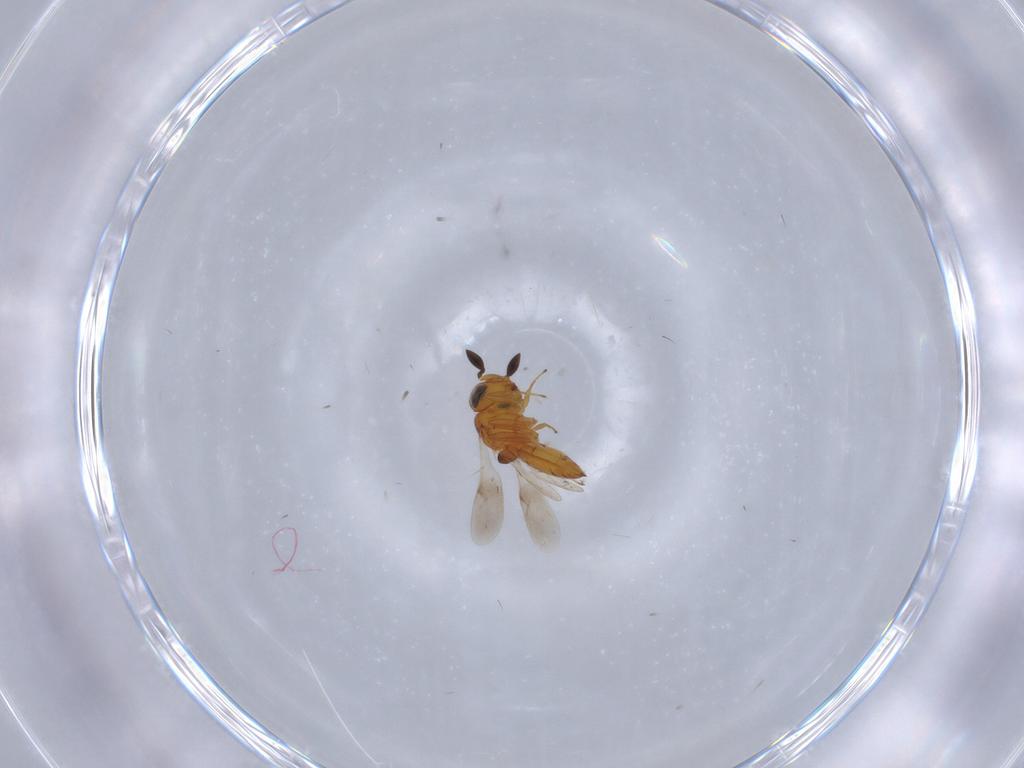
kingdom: Animalia
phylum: Arthropoda
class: Insecta
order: Hymenoptera
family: Scelionidae
